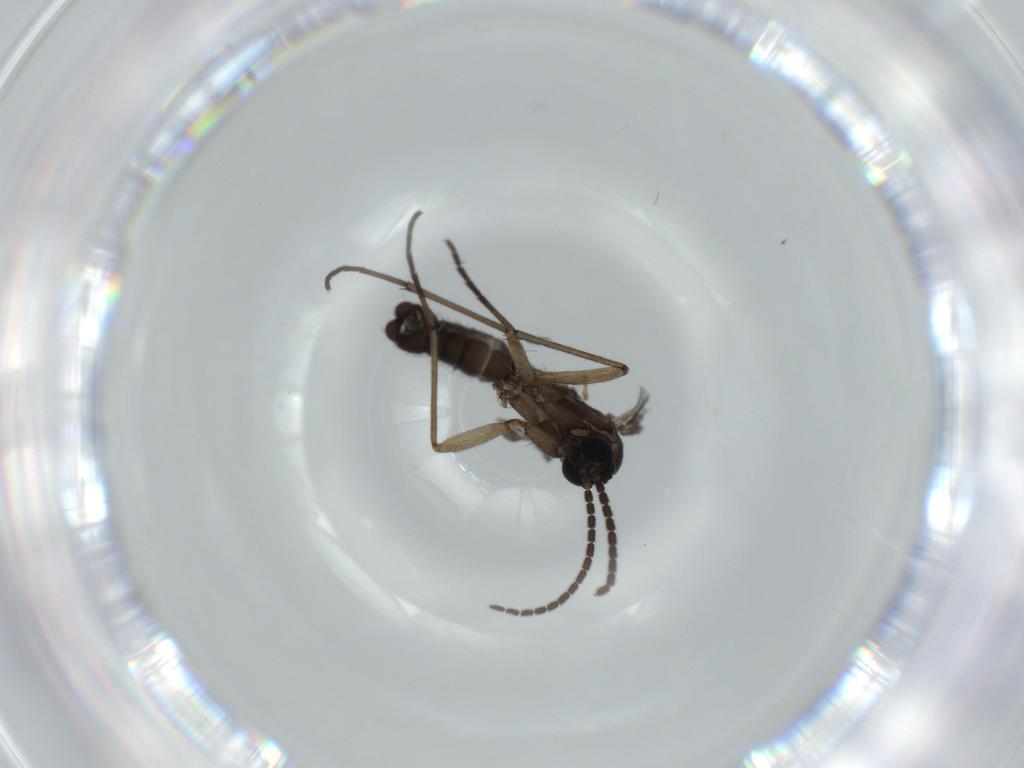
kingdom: Animalia
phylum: Arthropoda
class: Insecta
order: Diptera
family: Sciaridae
